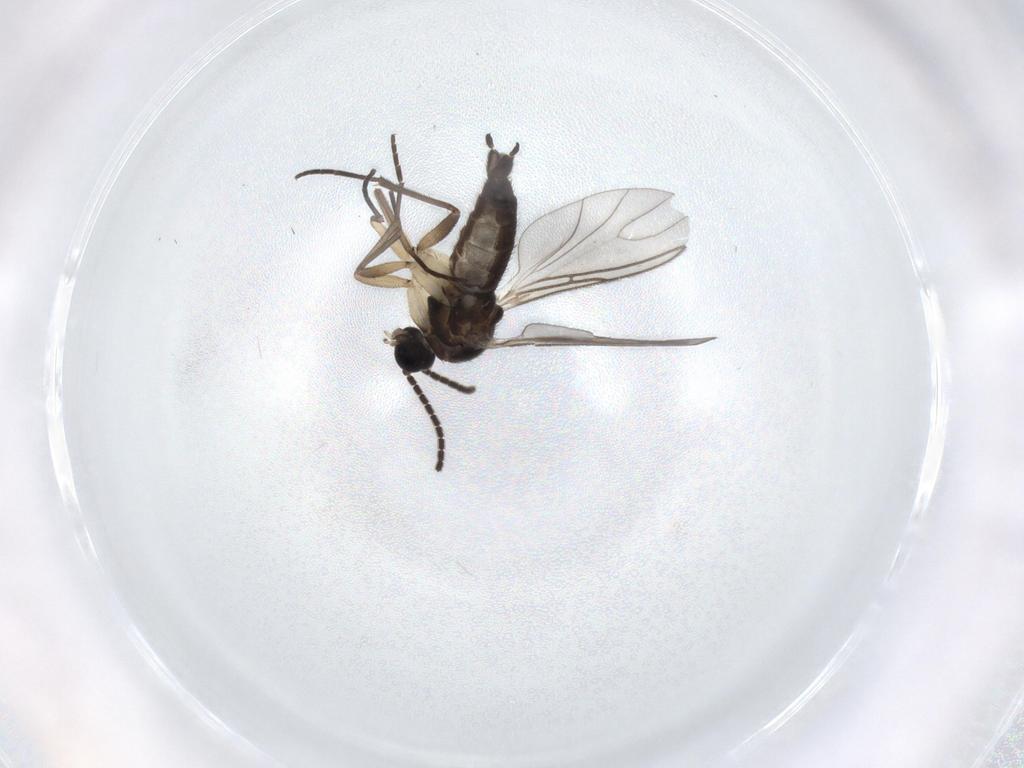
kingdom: Animalia
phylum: Arthropoda
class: Insecta
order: Diptera
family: Sciaridae
